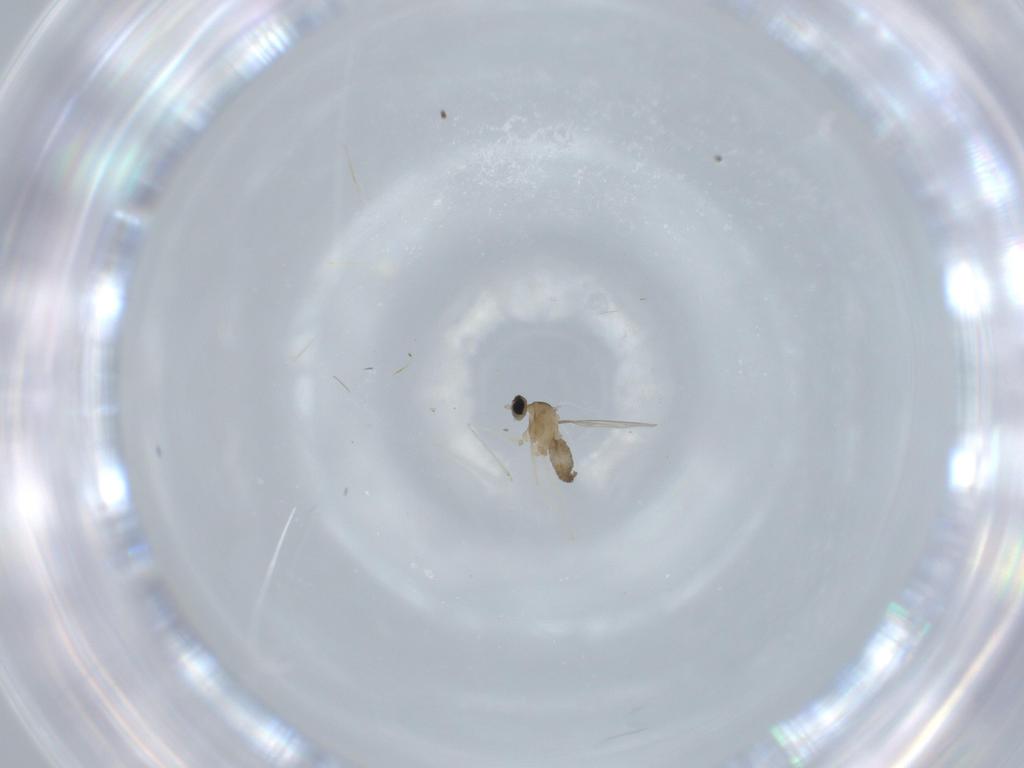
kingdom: Animalia
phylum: Arthropoda
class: Insecta
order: Diptera
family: Cecidomyiidae
